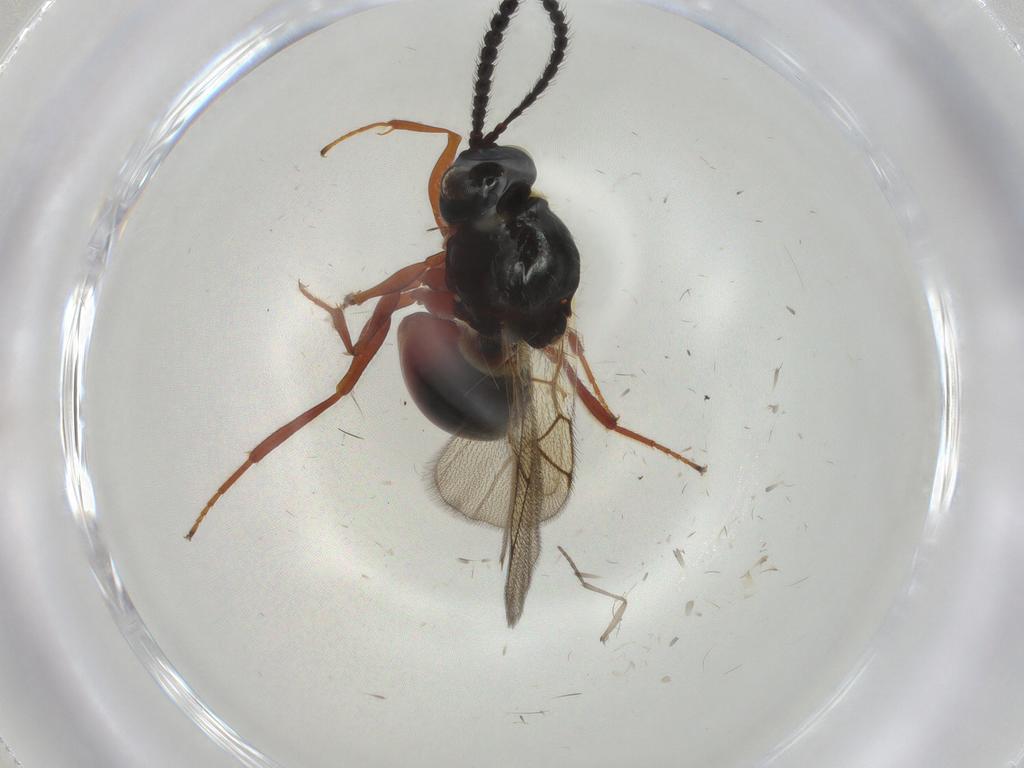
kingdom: Animalia
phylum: Arthropoda
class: Insecta
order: Hymenoptera
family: Figitidae
